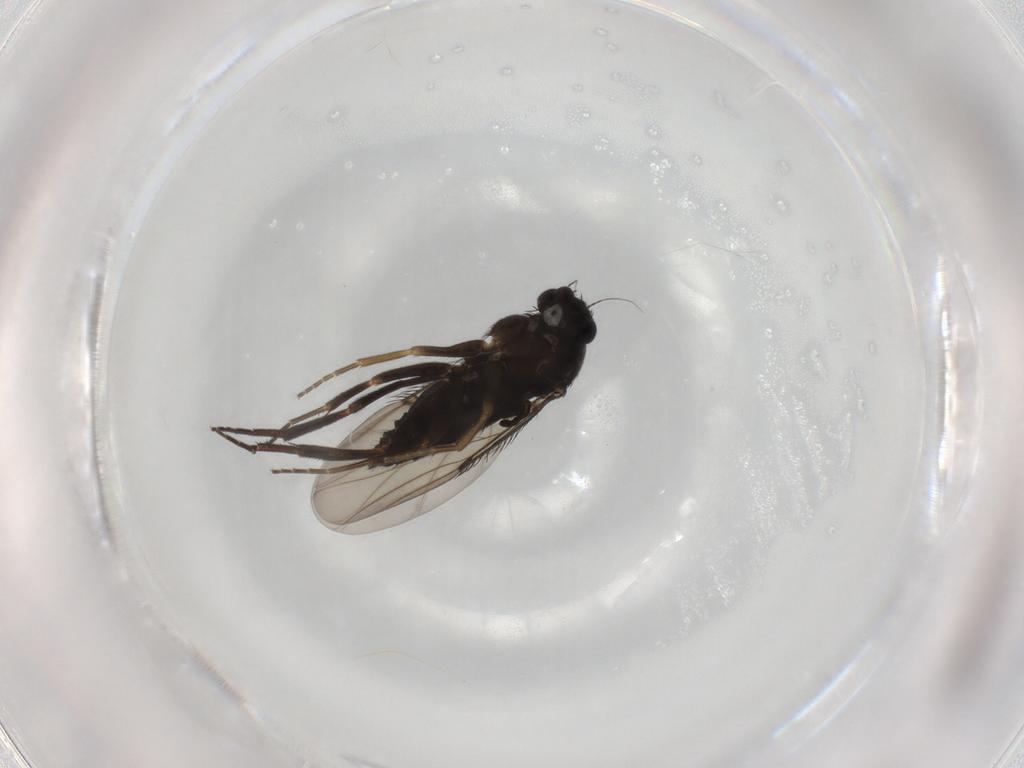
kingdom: Animalia
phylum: Arthropoda
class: Insecta
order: Diptera
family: Phoridae
